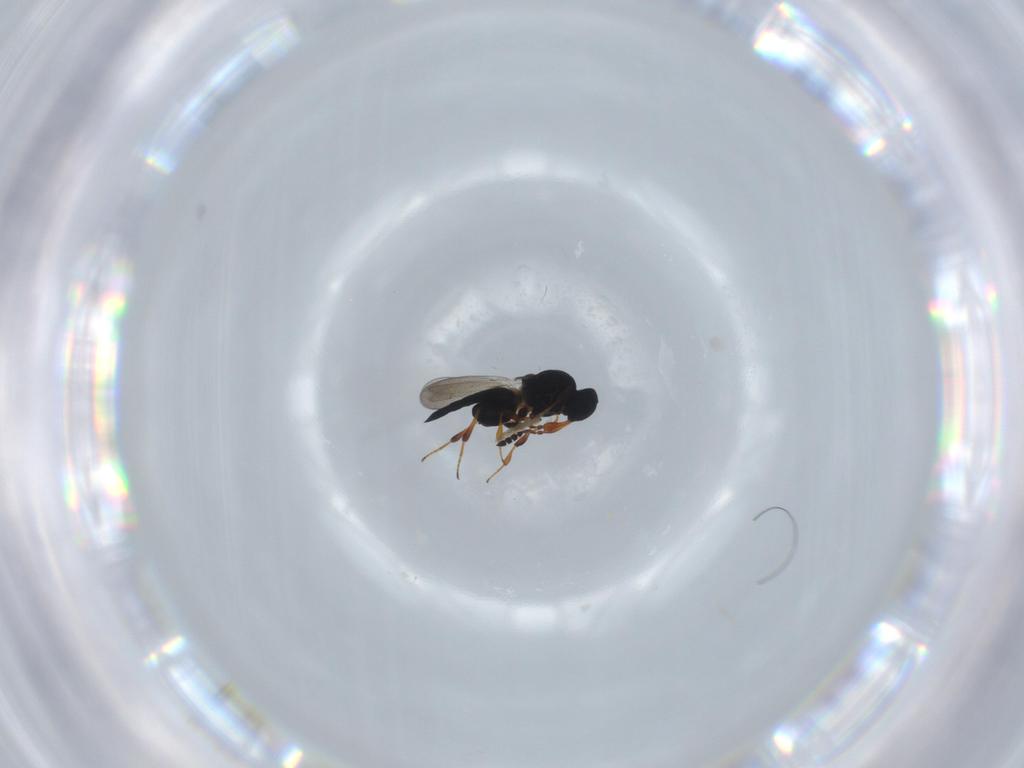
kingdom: Animalia
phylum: Arthropoda
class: Insecta
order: Hymenoptera
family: Platygastridae
